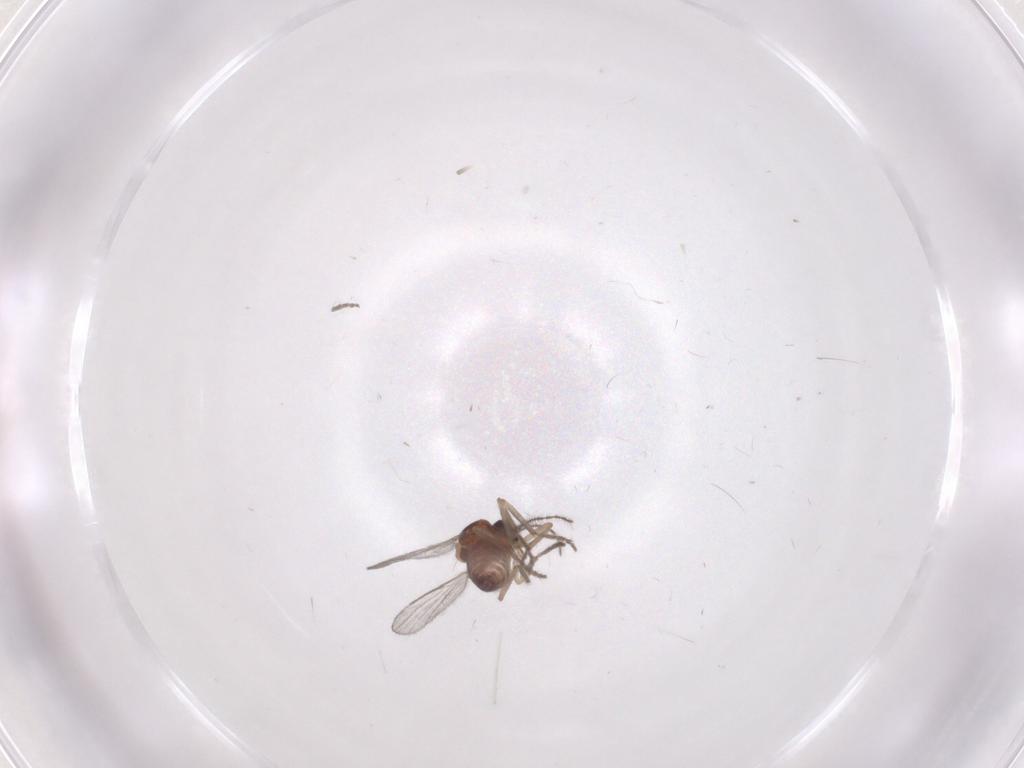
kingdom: Animalia
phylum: Arthropoda
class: Insecta
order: Diptera
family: Ceratopogonidae
